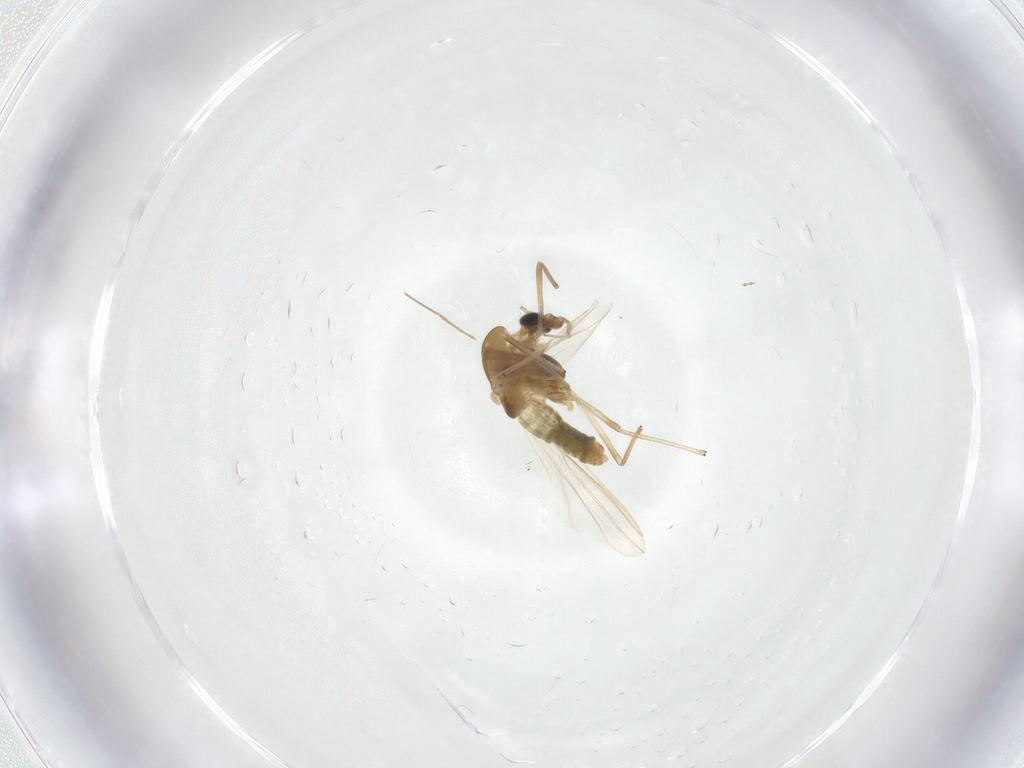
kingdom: Animalia
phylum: Arthropoda
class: Insecta
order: Diptera
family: Chironomidae
